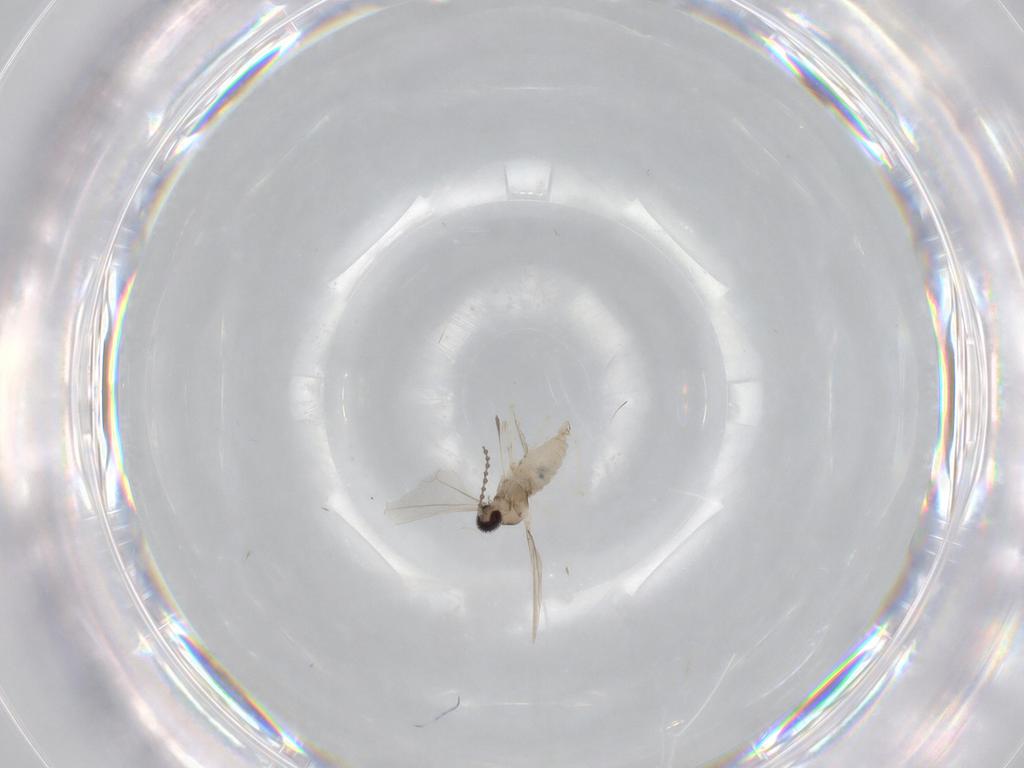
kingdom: Animalia
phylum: Arthropoda
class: Insecta
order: Diptera
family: Cecidomyiidae
